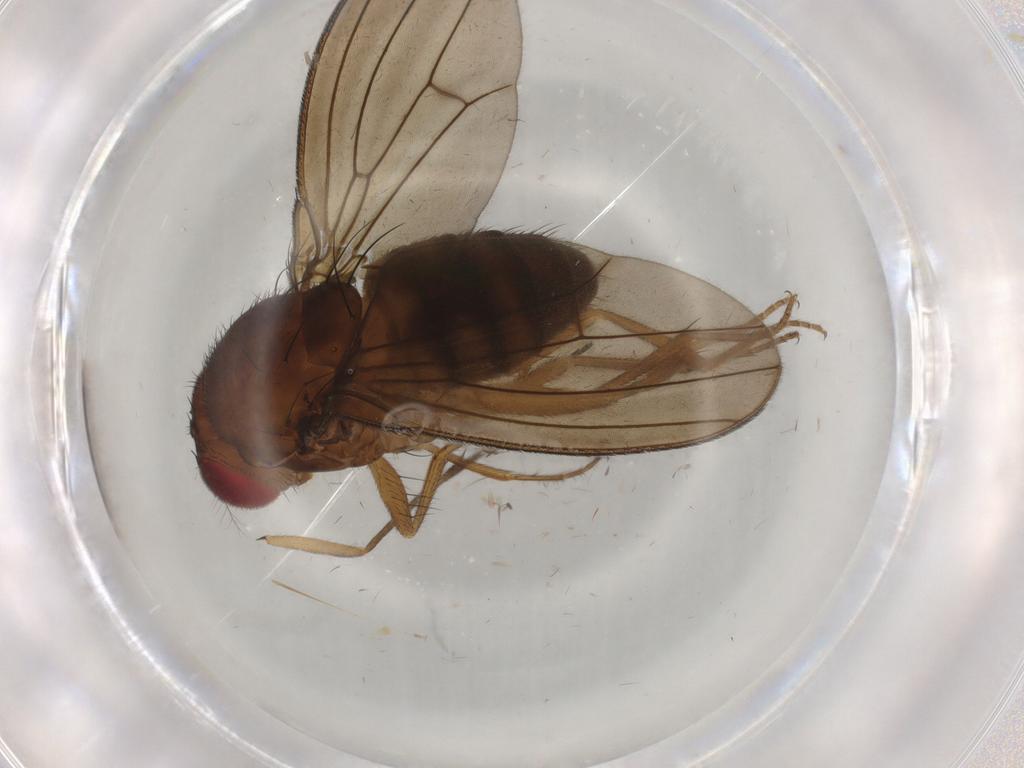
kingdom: Animalia
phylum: Arthropoda
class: Insecta
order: Diptera
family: Drosophilidae
